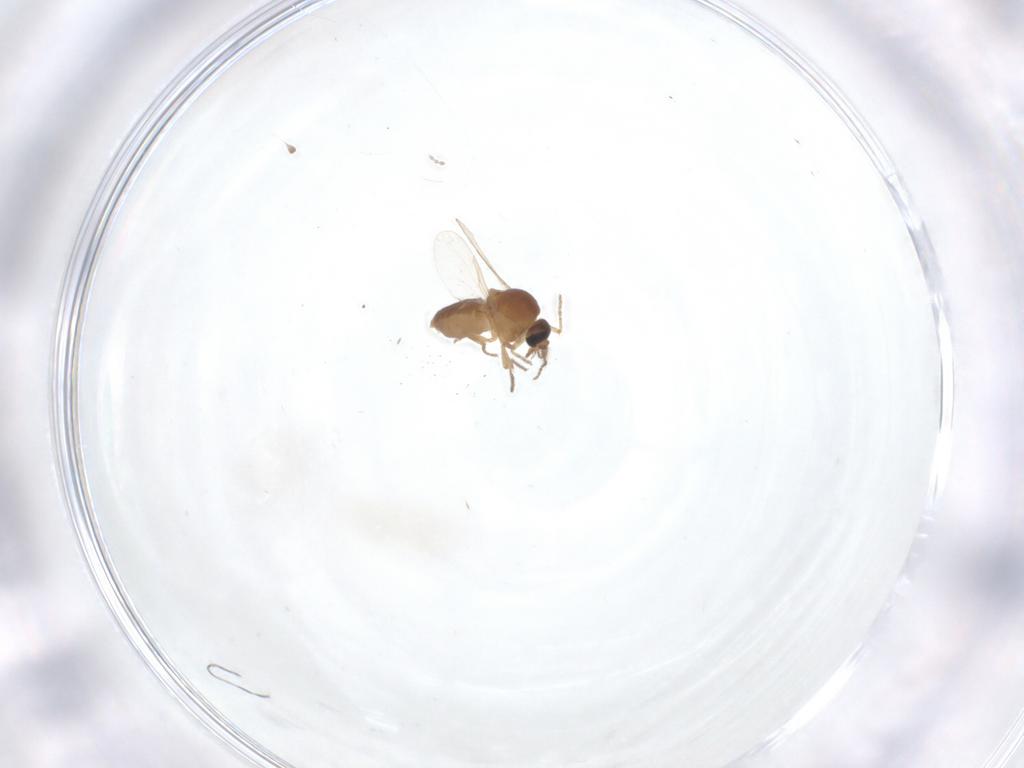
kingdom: Animalia
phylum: Arthropoda
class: Insecta
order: Diptera
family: Ceratopogonidae
